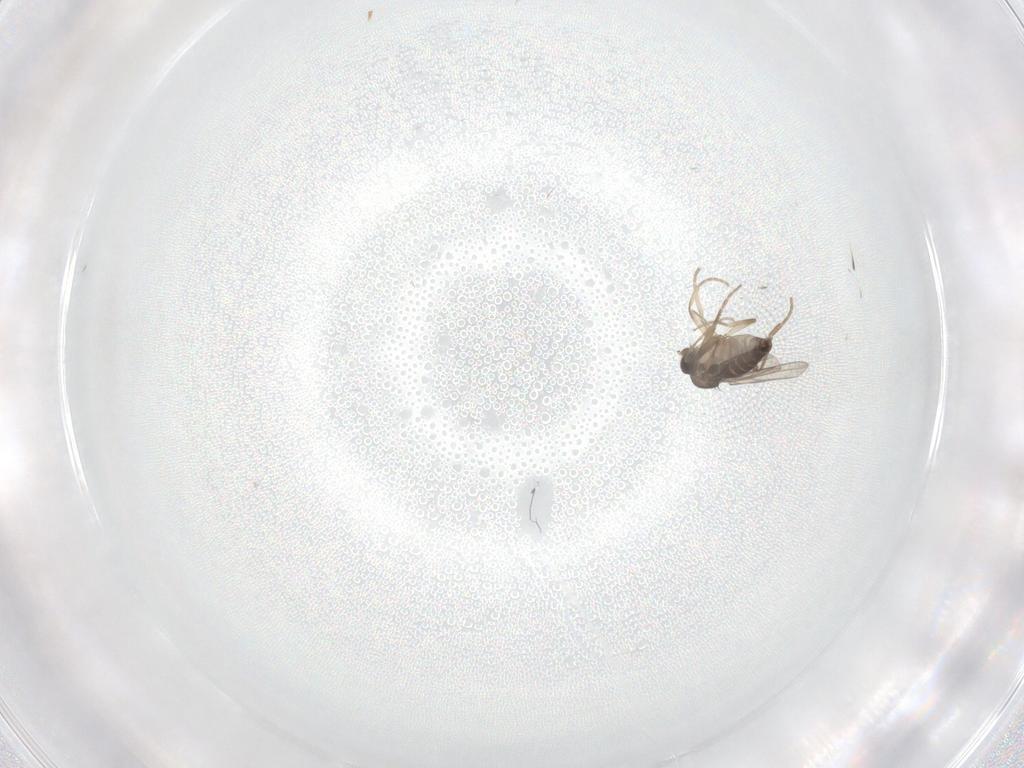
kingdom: Animalia
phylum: Arthropoda
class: Insecta
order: Diptera
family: Phoridae
